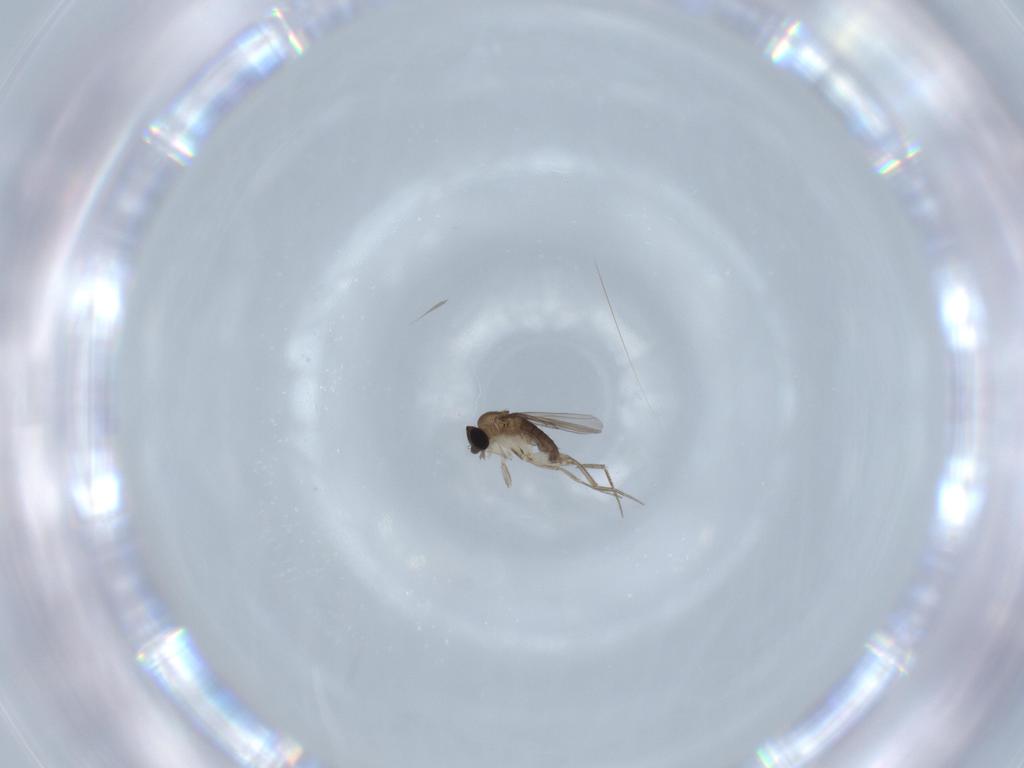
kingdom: Animalia
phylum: Arthropoda
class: Insecta
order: Diptera
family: Phoridae
